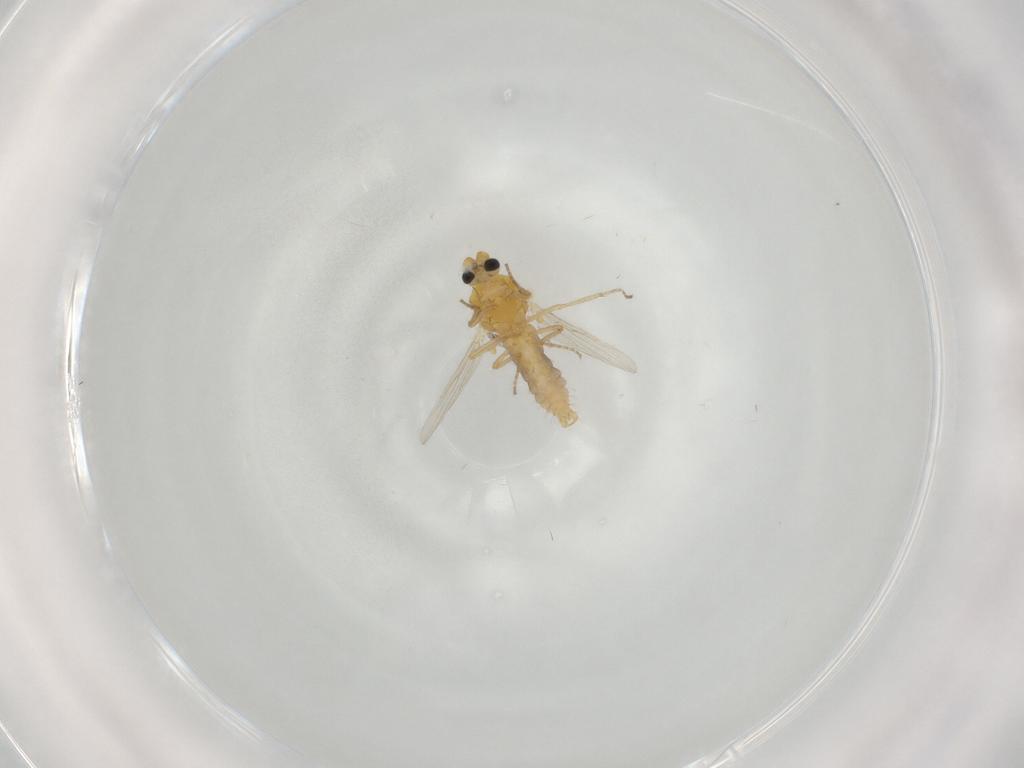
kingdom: Animalia
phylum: Arthropoda
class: Insecta
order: Diptera
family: Ceratopogonidae
